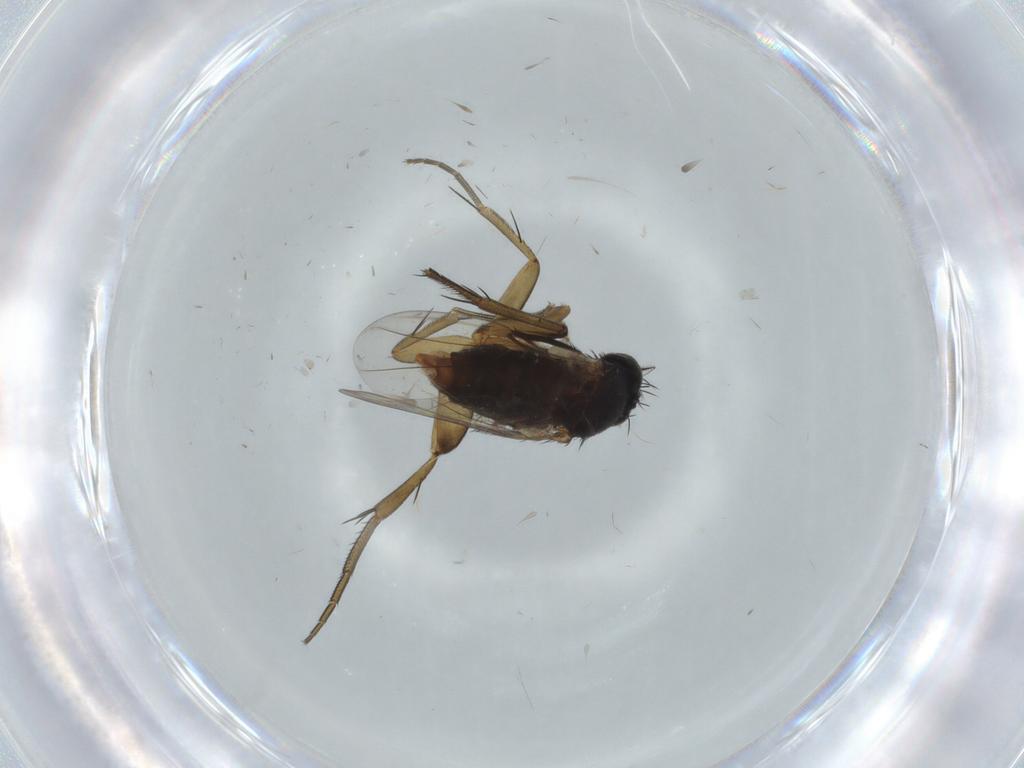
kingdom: Animalia
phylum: Arthropoda
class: Insecta
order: Diptera
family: Phoridae
